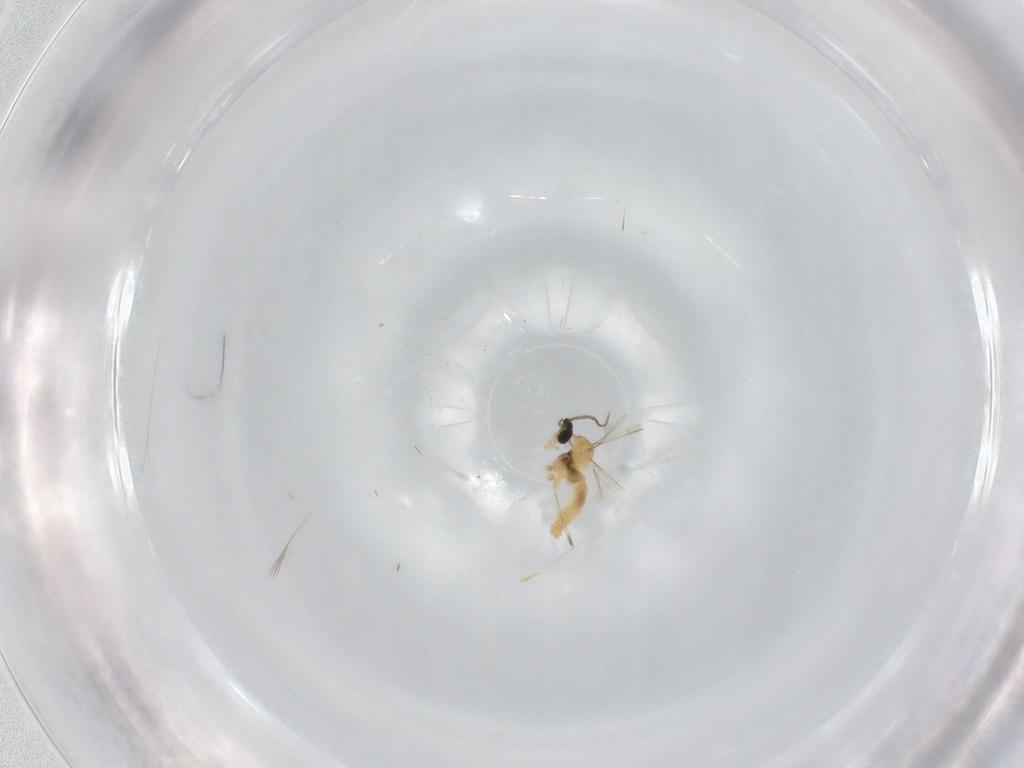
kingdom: Animalia
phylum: Arthropoda
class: Insecta
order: Diptera
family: Cecidomyiidae
